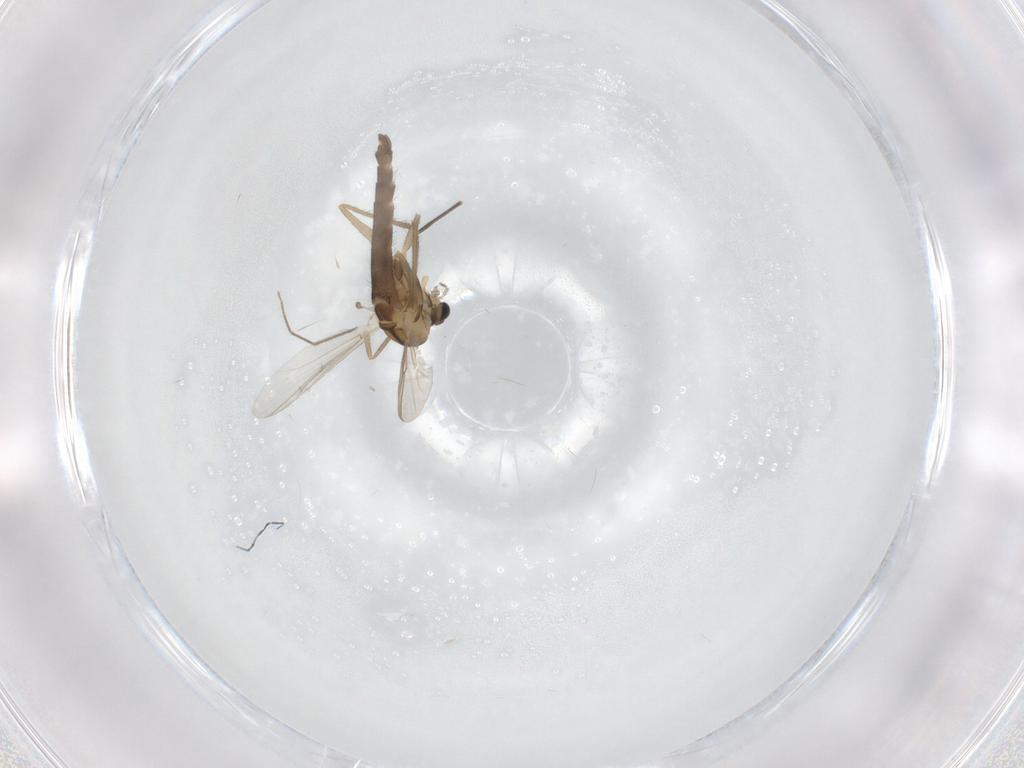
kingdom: Animalia
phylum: Arthropoda
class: Insecta
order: Diptera
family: Chironomidae
